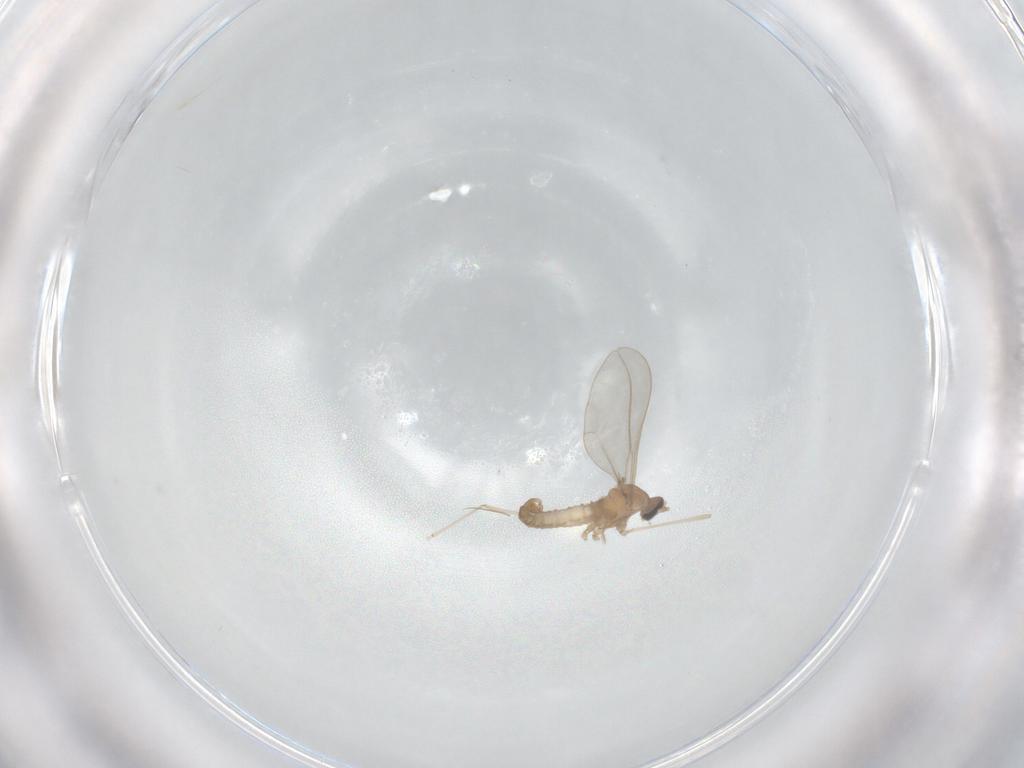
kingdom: Animalia
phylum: Arthropoda
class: Insecta
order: Diptera
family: Cecidomyiidae
